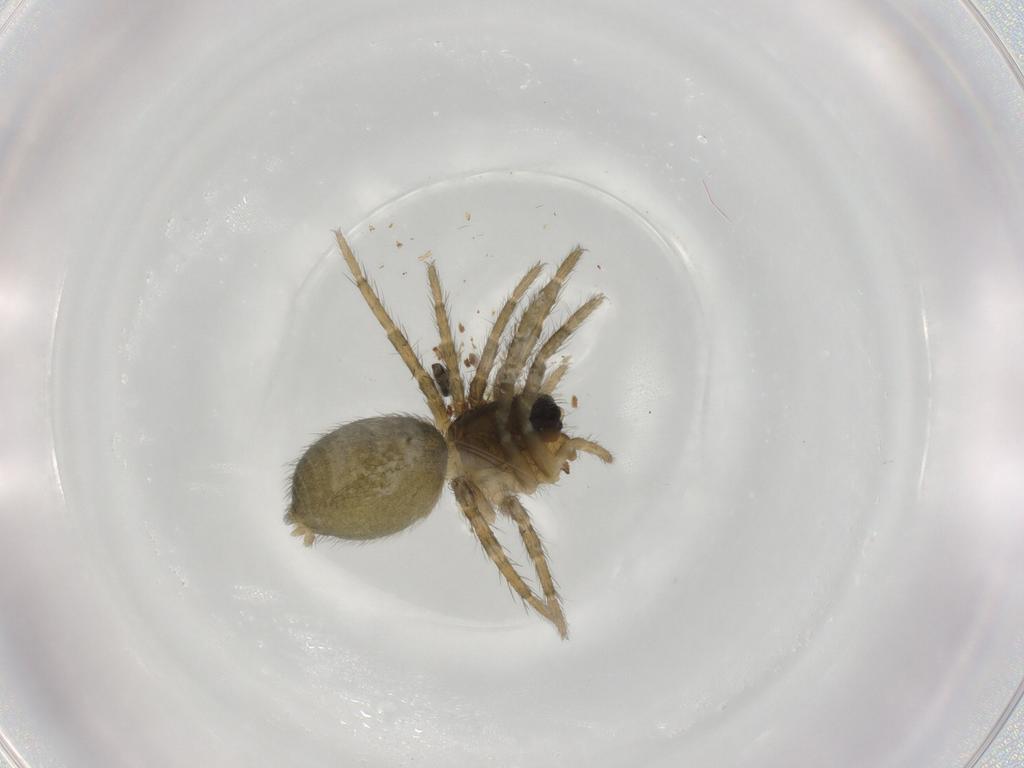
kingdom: Animalia
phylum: Arthropoda
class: Arachnida
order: Araneae
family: Lycosidae
